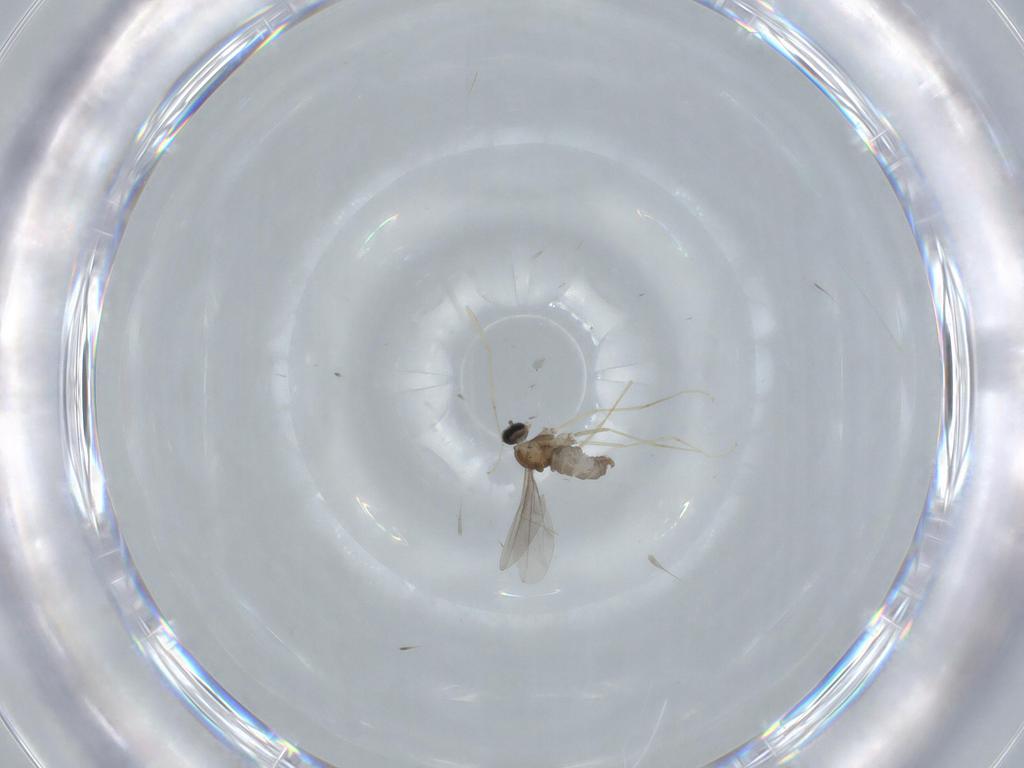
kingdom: Animalia
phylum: Arthropoda
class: Insecta
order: Diptera
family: Cecidomyiidae
